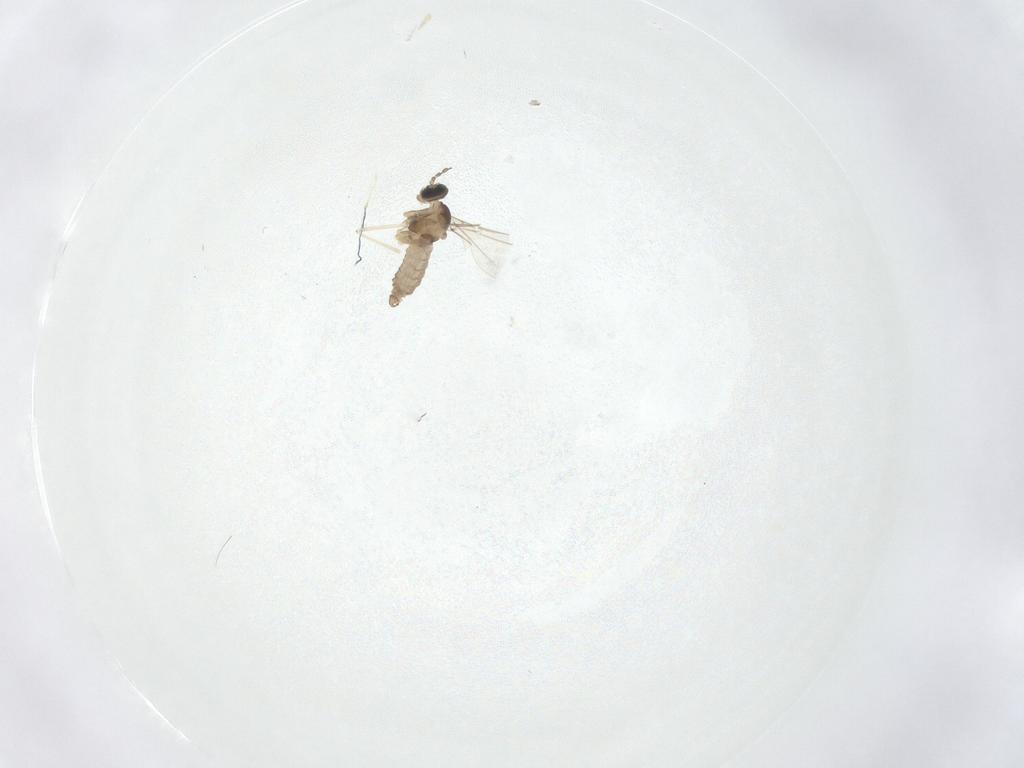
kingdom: Animalia
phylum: Arthropoda
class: Insecta
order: Diptera
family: Cecidomyiidae
